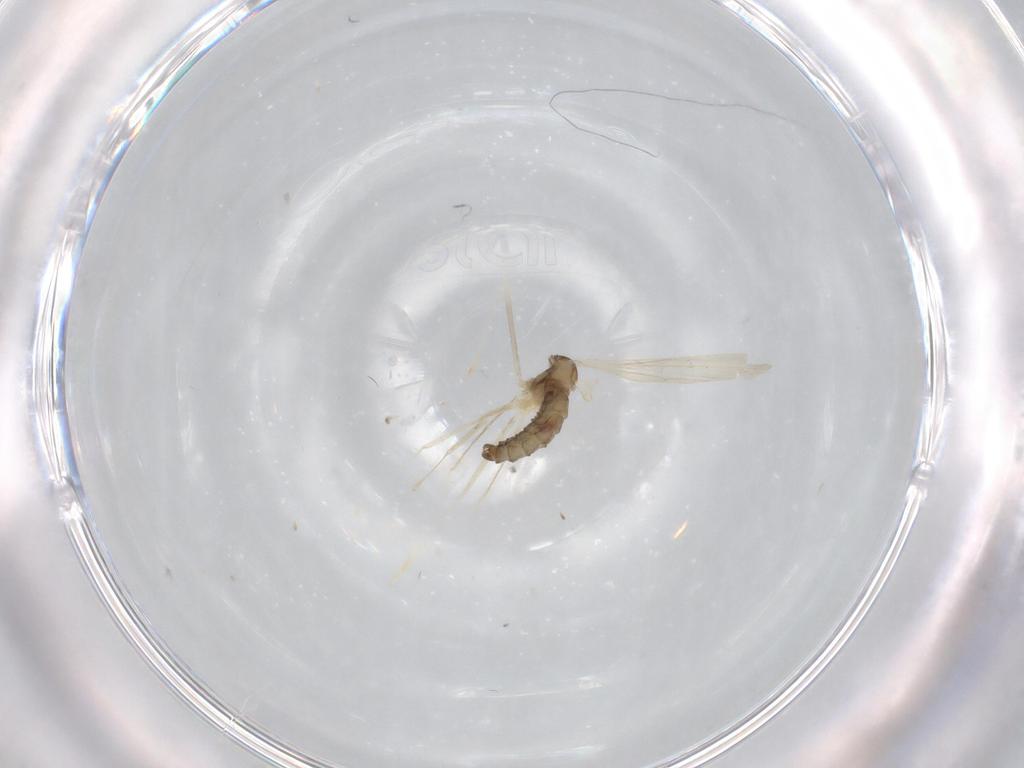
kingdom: Animalia
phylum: Arthropoda
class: Insecta
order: Diptera
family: Cecidomyiidae
